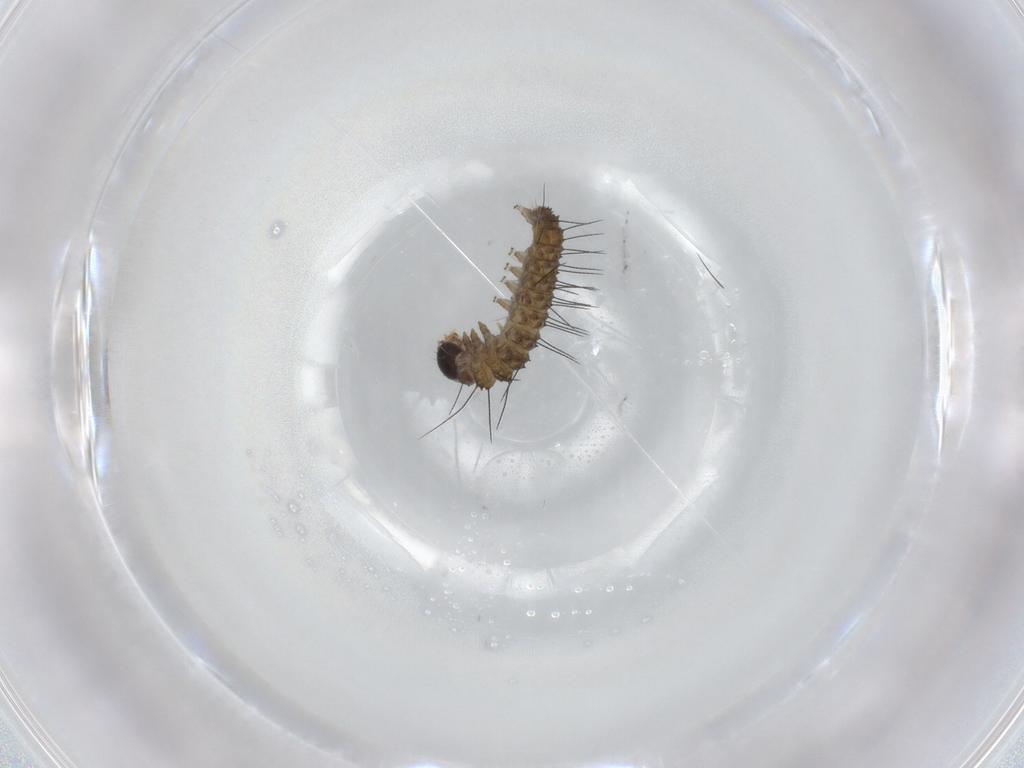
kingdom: Animalia
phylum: Arthropoda
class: Insecta
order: Lepidoptera
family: Erebidae
